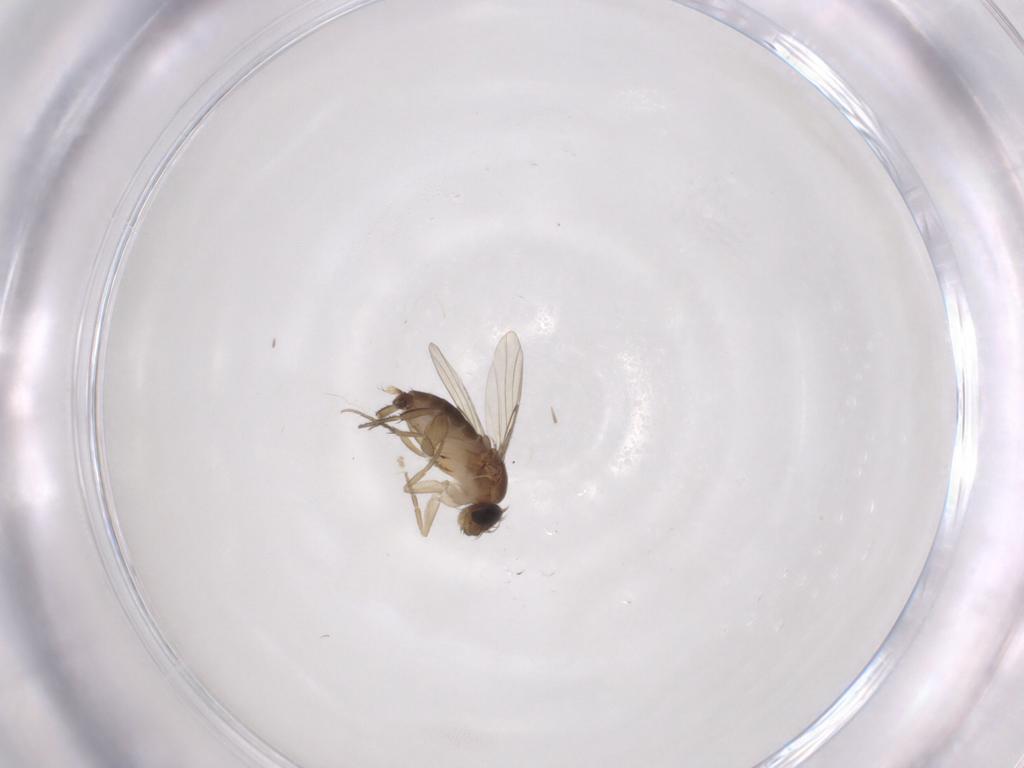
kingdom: Animalia
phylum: Arthropoda
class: Insecta
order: Diptera
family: Phoridae
